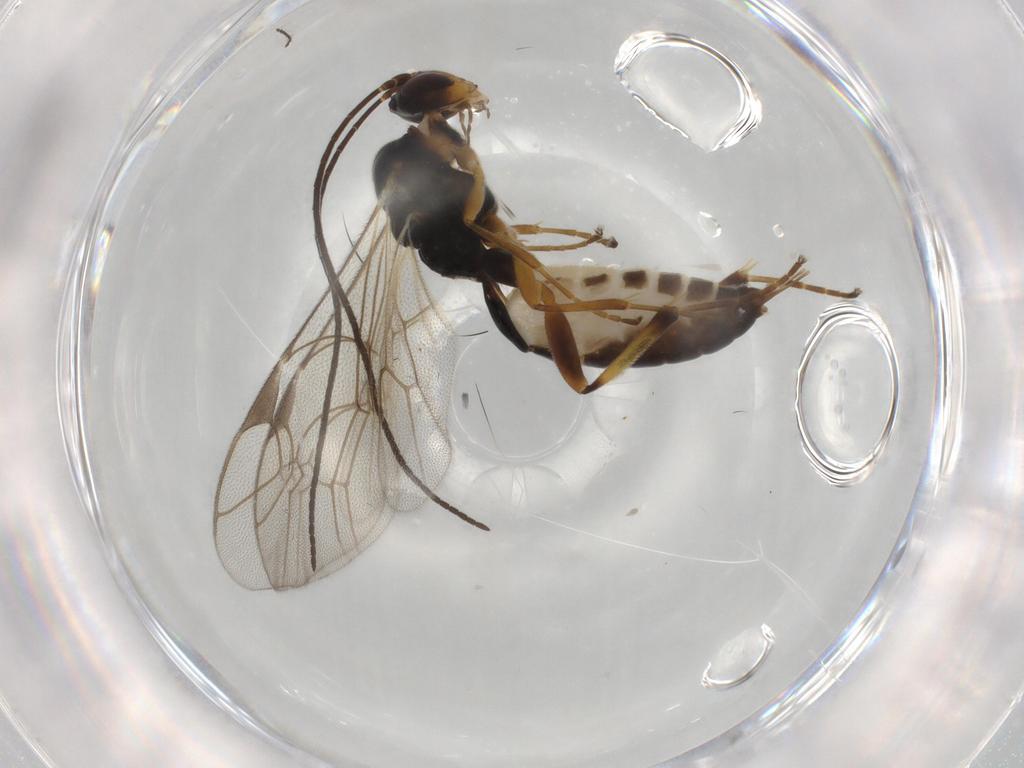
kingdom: Animalia
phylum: Arthropoda
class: Insecta
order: Hymenoptera
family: Ichneumonidae
